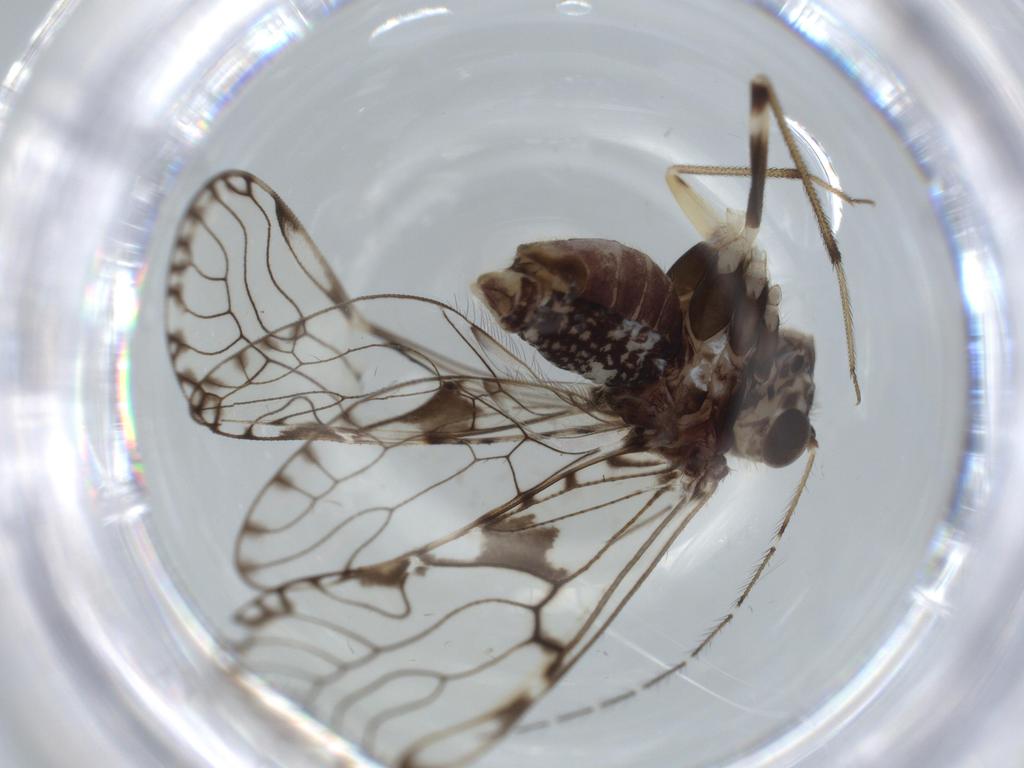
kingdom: Animalia
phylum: Arthropoda
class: Insecta
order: Psocodea
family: Ptiloneuridae
